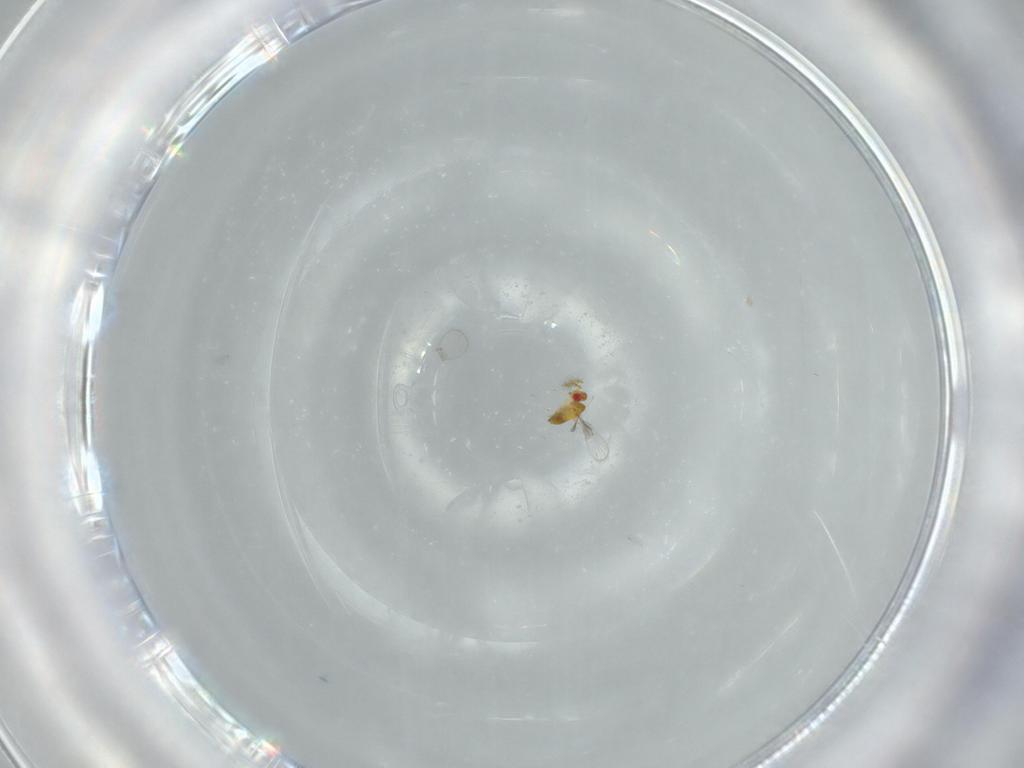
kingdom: Animalia
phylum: Arthropoda
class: Insecta
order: Hymenoptera
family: Trichogrammatidae
